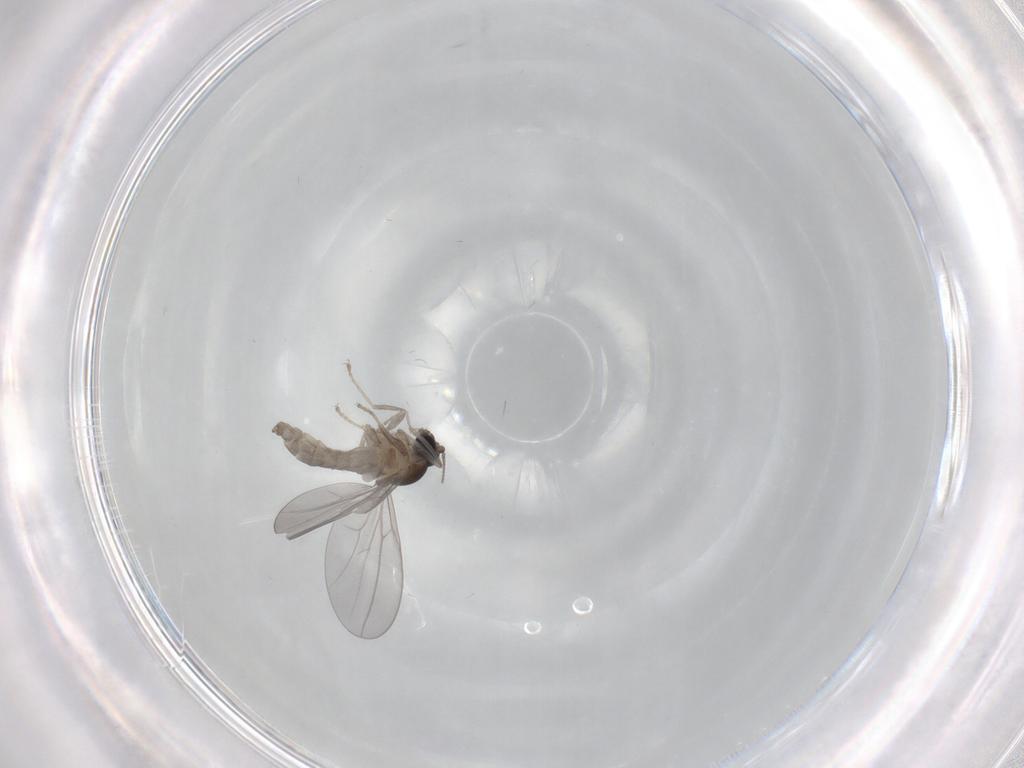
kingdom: Animalia
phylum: Arthropoda
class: Insecta
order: Diptera
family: Cecidomyiidae
